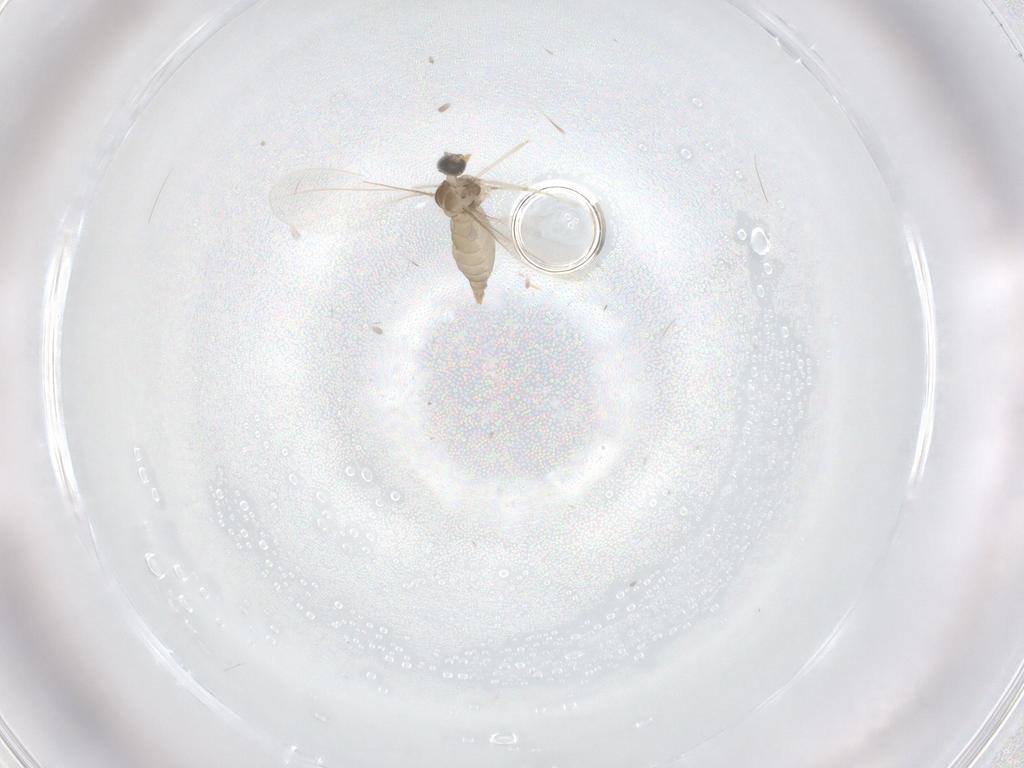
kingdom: Animalia
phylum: Arthropoda
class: Insecta
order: Diptera
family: Cecidomyiidae
